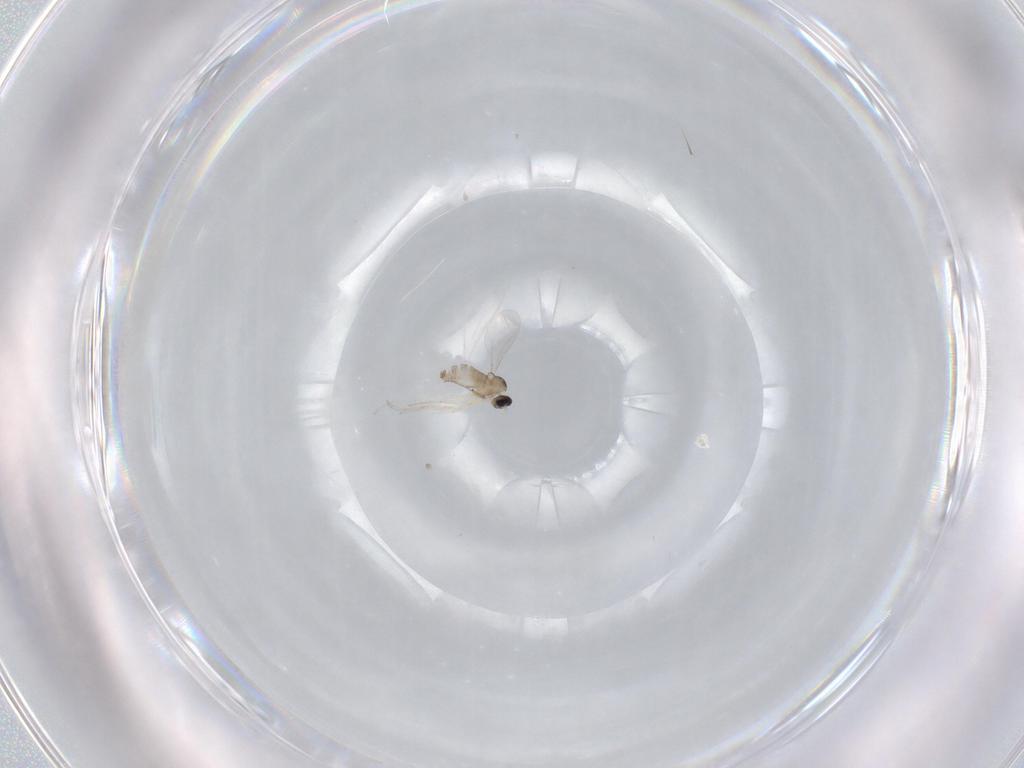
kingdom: Animalia
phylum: Arthropoda
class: Insecta
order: Diptera
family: Cecidomyiidae
